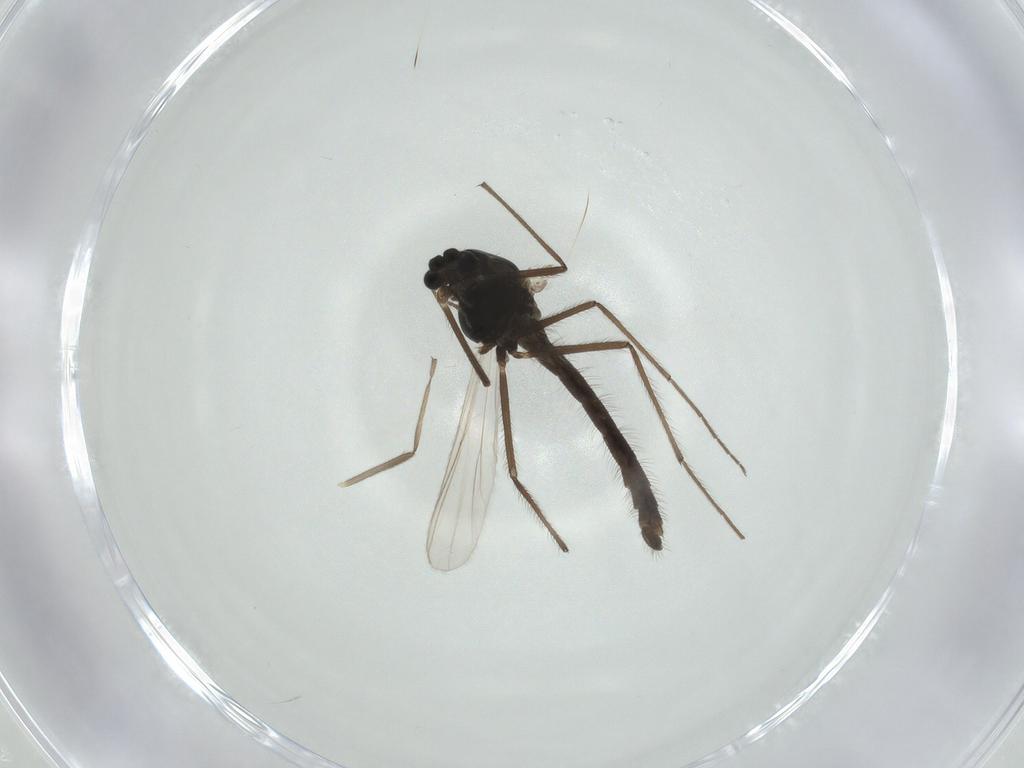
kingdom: Animalia
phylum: Arthropoda
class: Insecta
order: Diptera
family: Chironomidae
